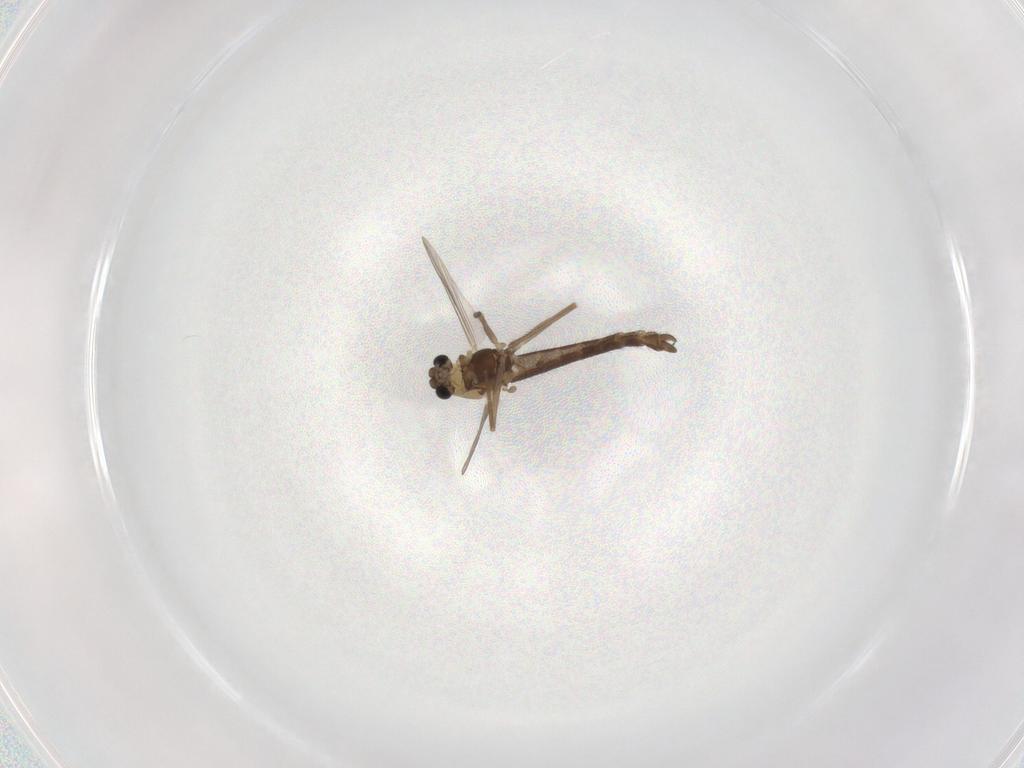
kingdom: Animalia
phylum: Arthropoda
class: Insecta
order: Diptera
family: Chironomidae
